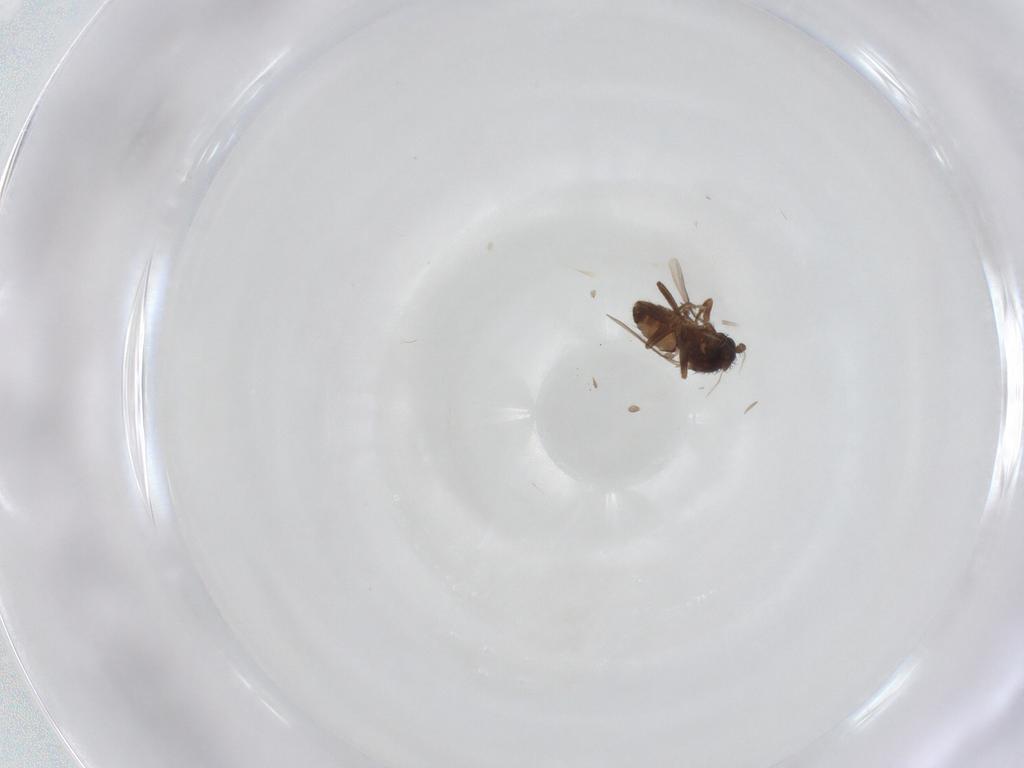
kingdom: Animalia
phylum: Arthropoda
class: Insecta
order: Diptera
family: Sphaeroceridae
